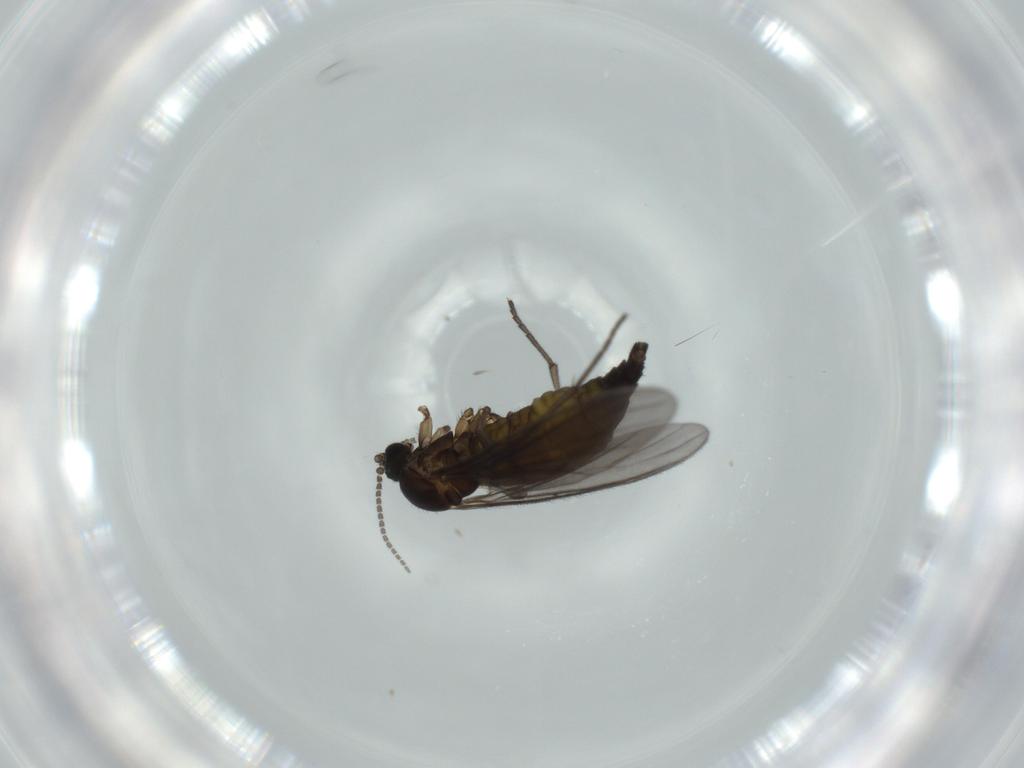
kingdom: Animalia
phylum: Arthropoda
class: Insecta
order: Diptera
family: Sciaridae
